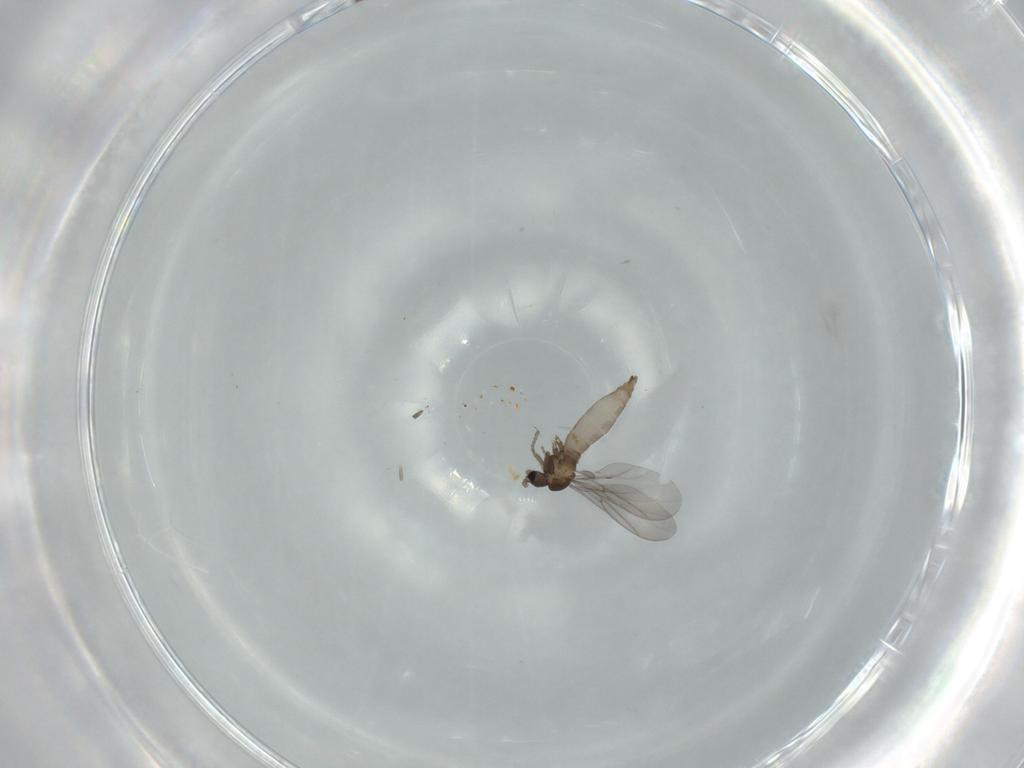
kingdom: Animalia
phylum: Arthropoda
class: Insecta
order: Diptera
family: Sciaridae
